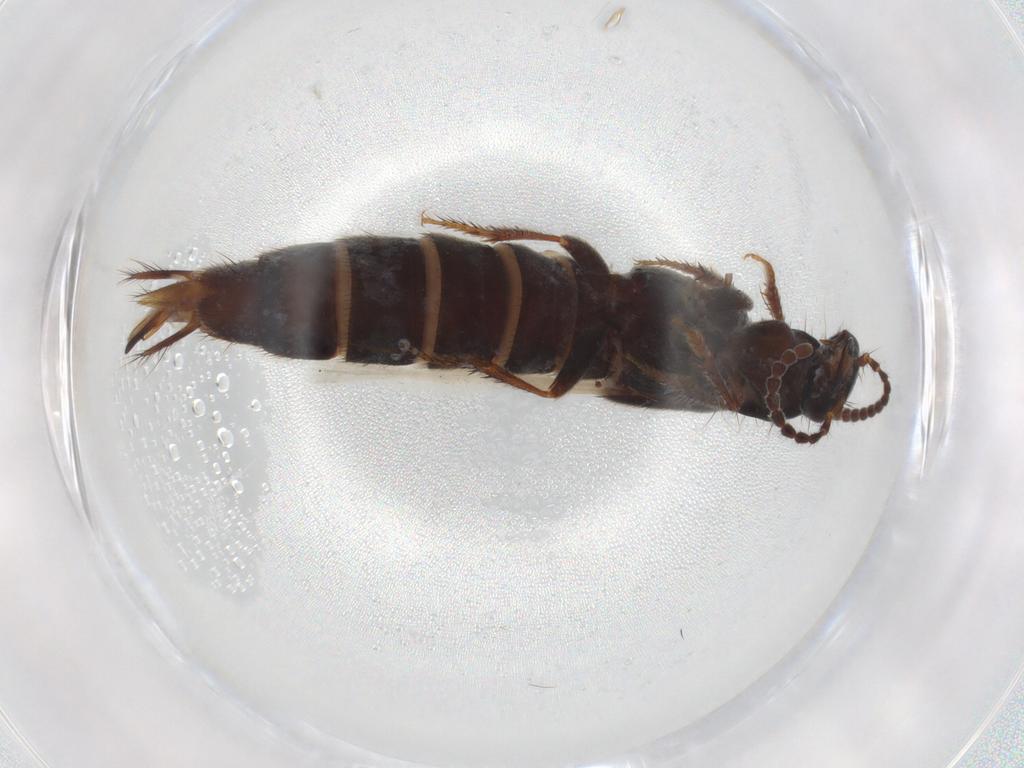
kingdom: Animalia
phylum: Arthropoda
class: Insecta
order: Coleoptera
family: Staphylinidae
